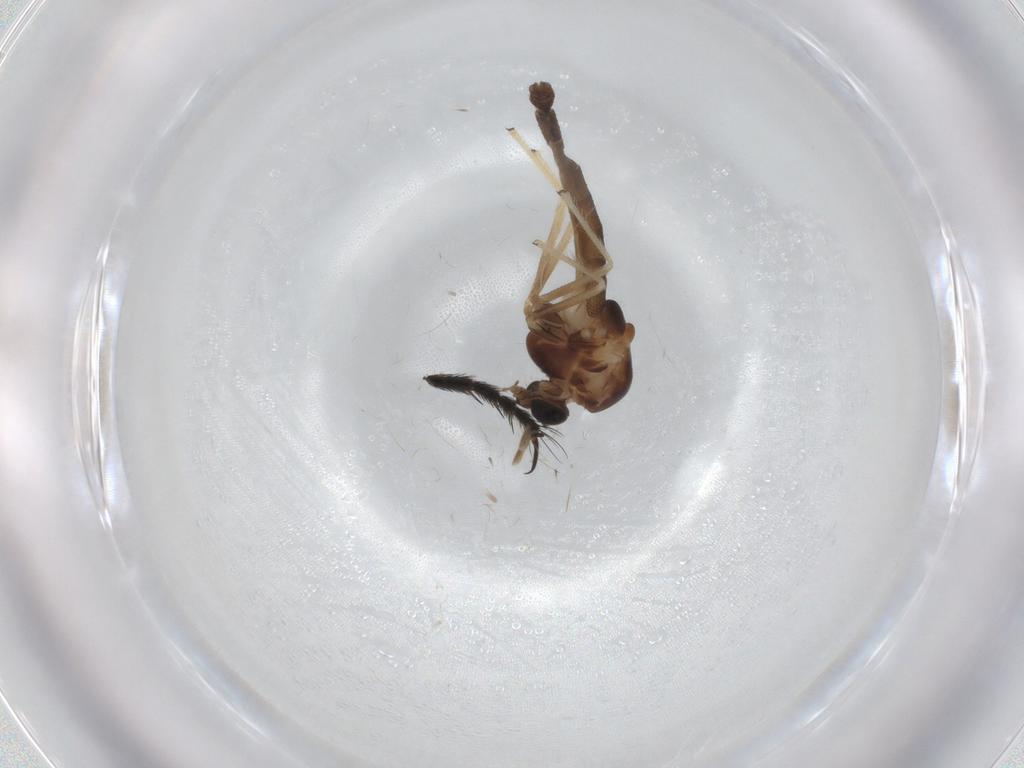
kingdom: Animalia
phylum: Arthropoda
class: Insecta
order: Diptera
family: Chironomidae
